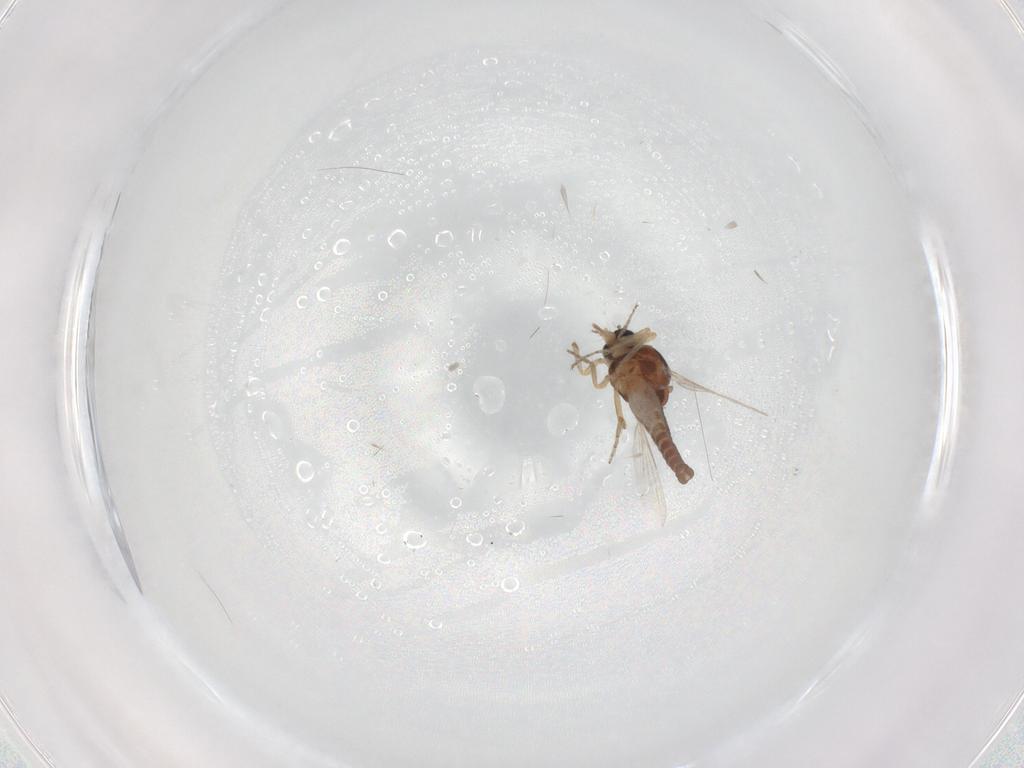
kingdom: Animalia
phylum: Arthropoda
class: Insecta
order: Diptera
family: Ceratopogonidae
